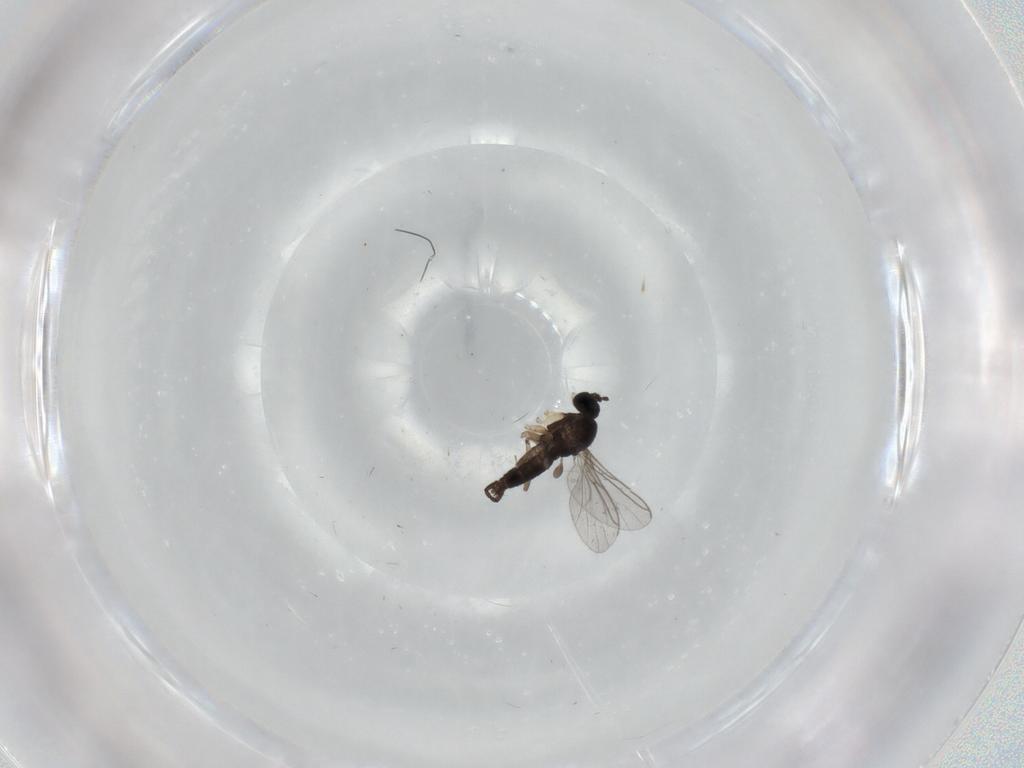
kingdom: Animalia
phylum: Arthropoda
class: Insecta
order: Diptera
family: Sciaridae
